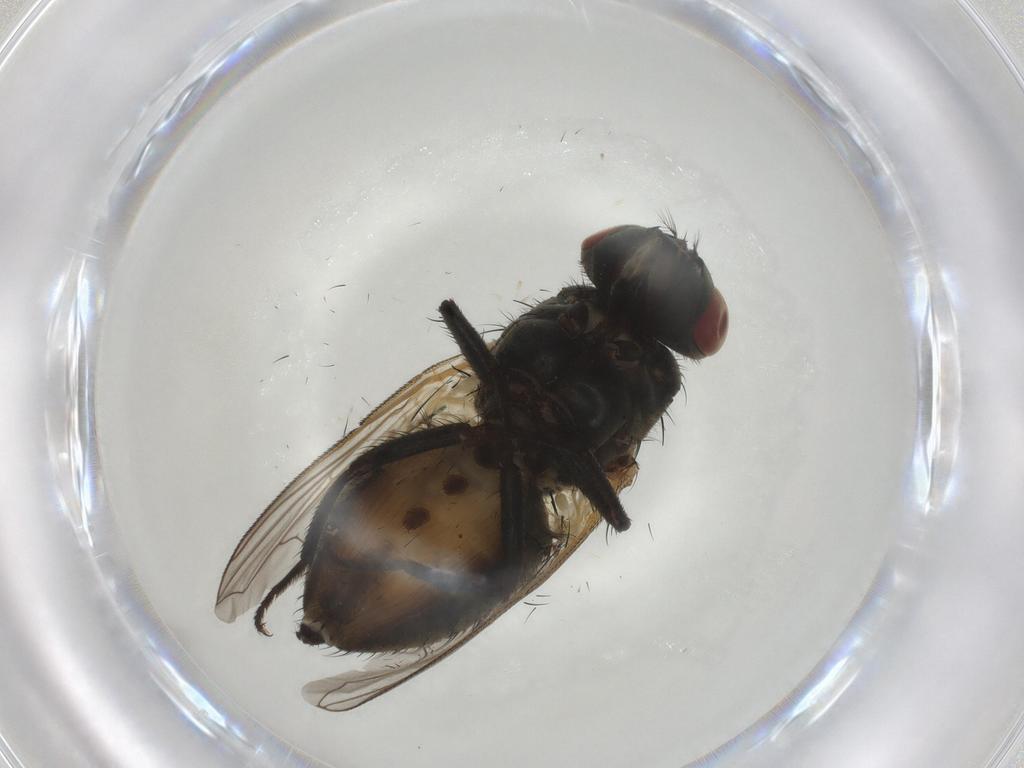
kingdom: Animalia
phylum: Arthropoda
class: Insecta
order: Diptera
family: Muscidae
